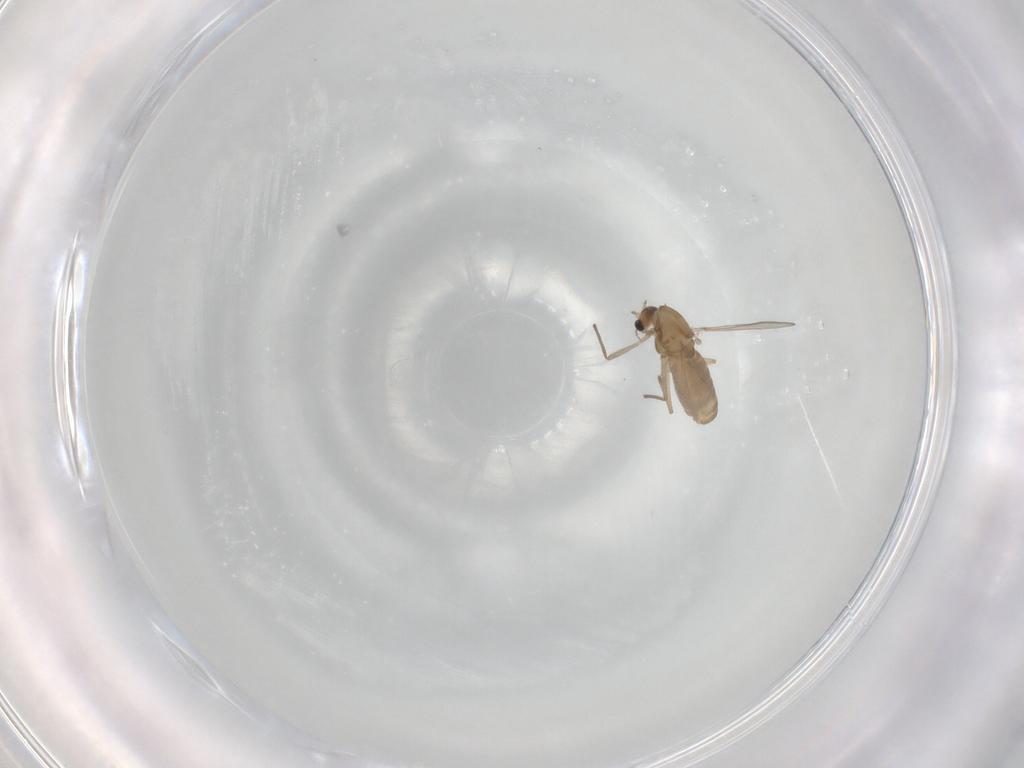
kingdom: Animalia
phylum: Arthropoda
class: Insecta
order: Diptera
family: Chironomidae
